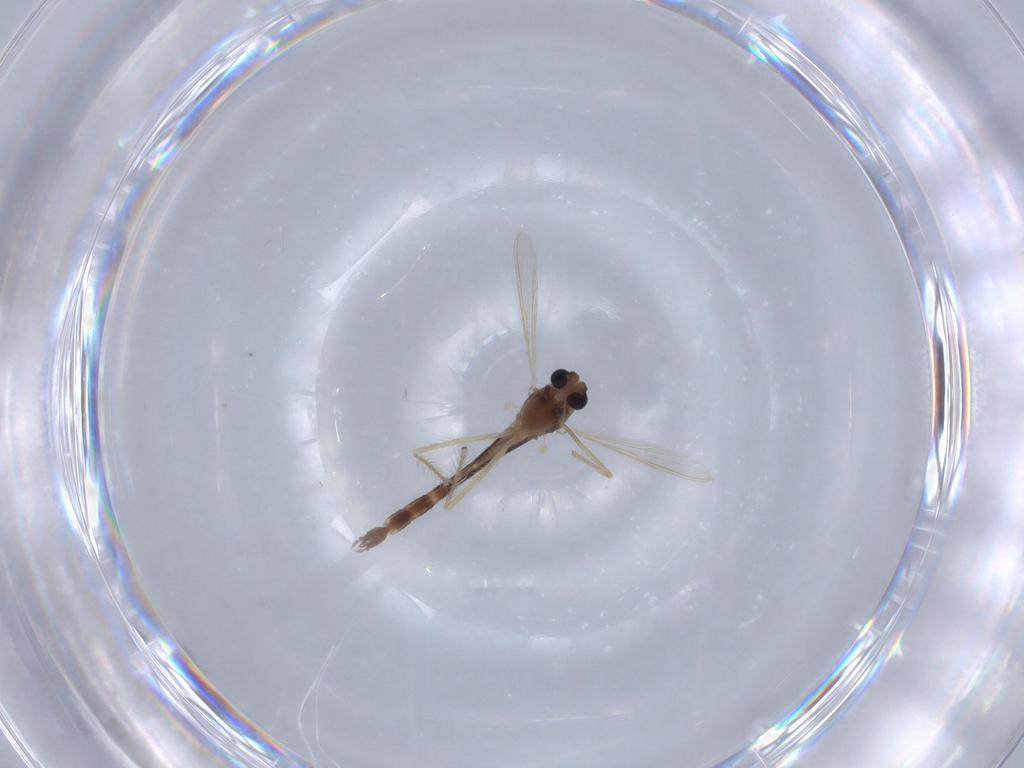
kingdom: Animalia
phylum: Arthropoda
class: Insecta
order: Diptera
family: Chironomidae
